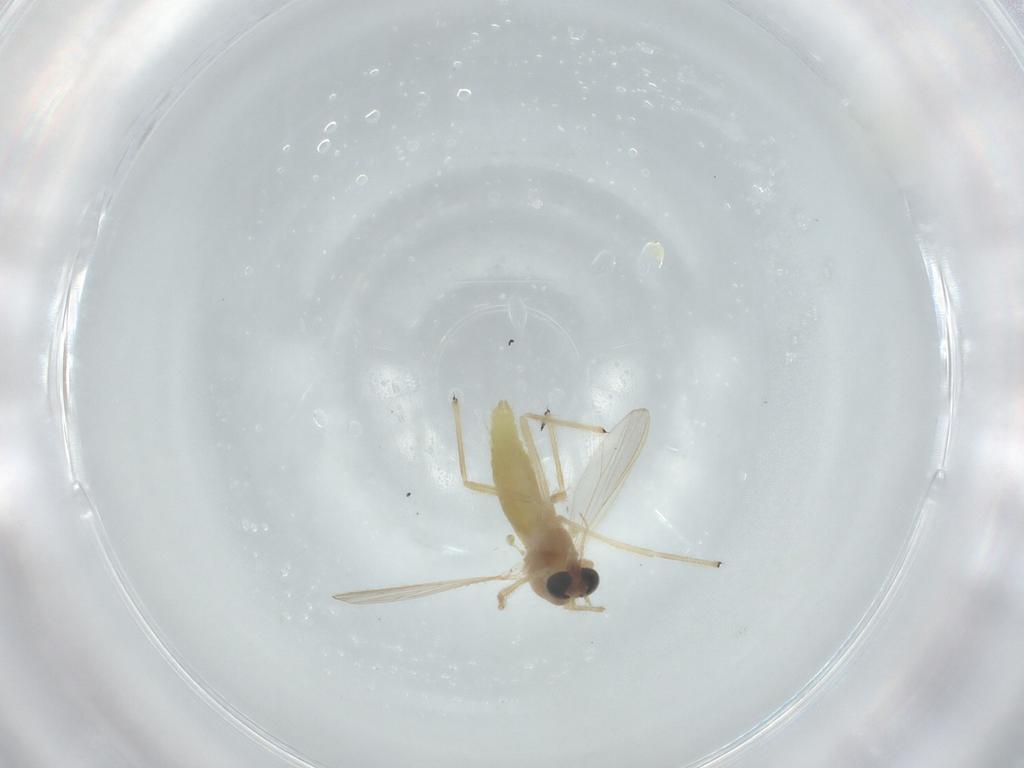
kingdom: Animalia
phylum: Arthropoda
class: Insecta
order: Diptera
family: Chironomidae
